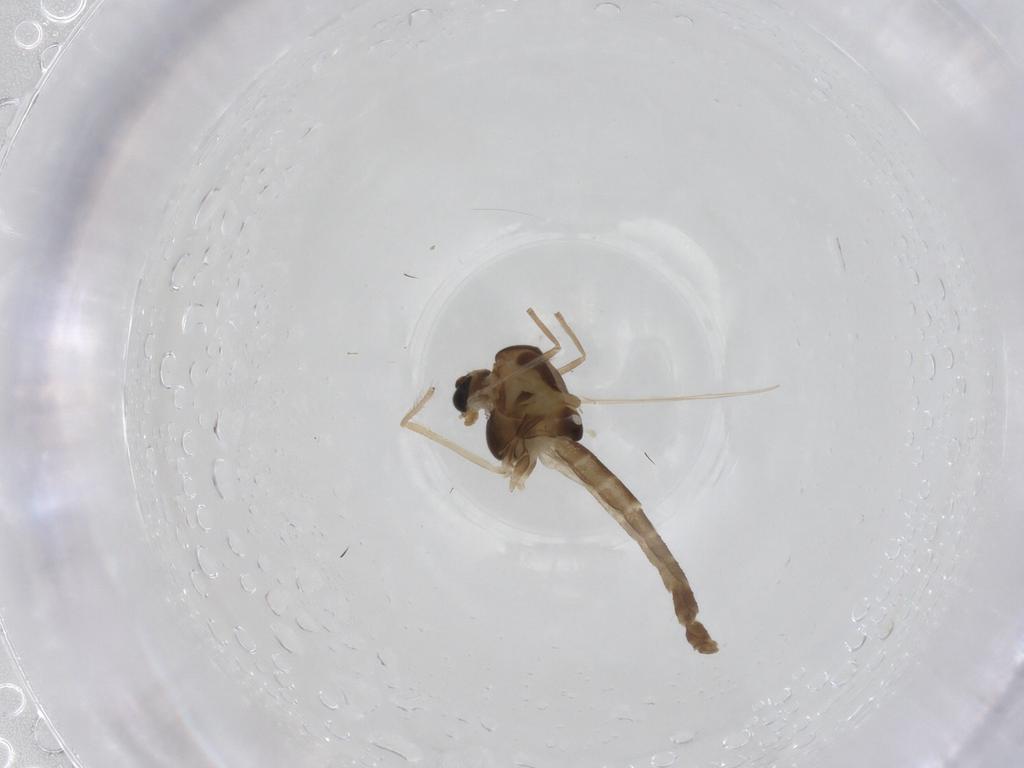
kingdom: Animalia
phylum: Arthropoda
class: Insecta
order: Diptera
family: Chironomidae
